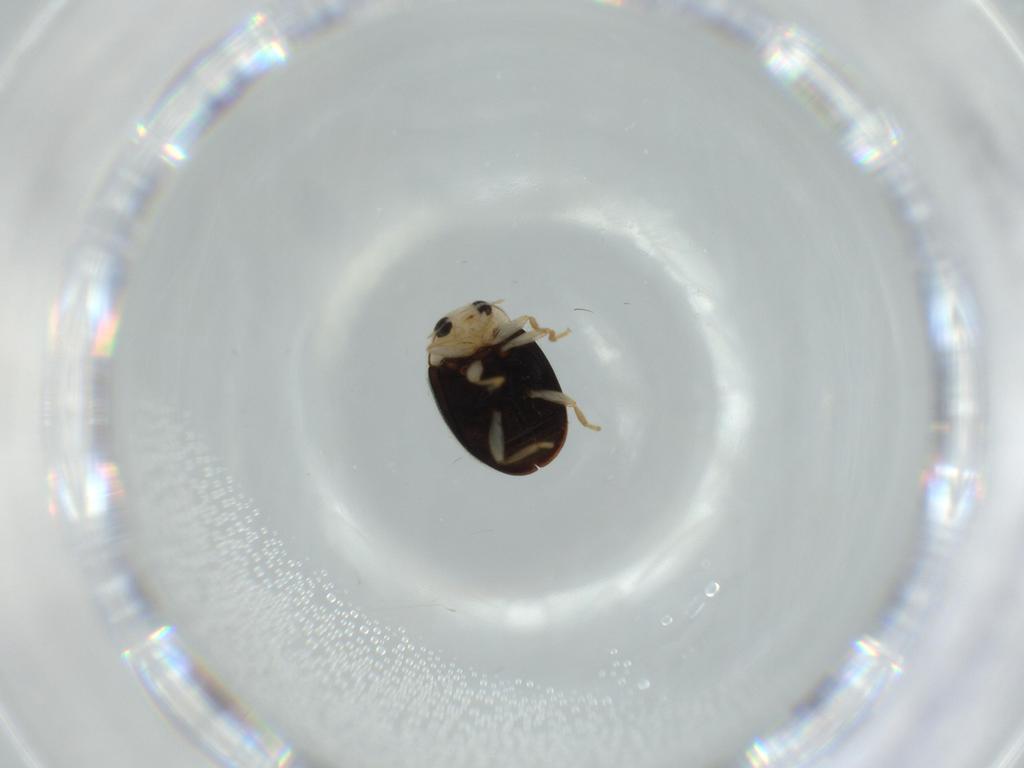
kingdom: Animalia
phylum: Arthropoda
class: Insecta
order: Coleoptera
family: Coccinellidae
